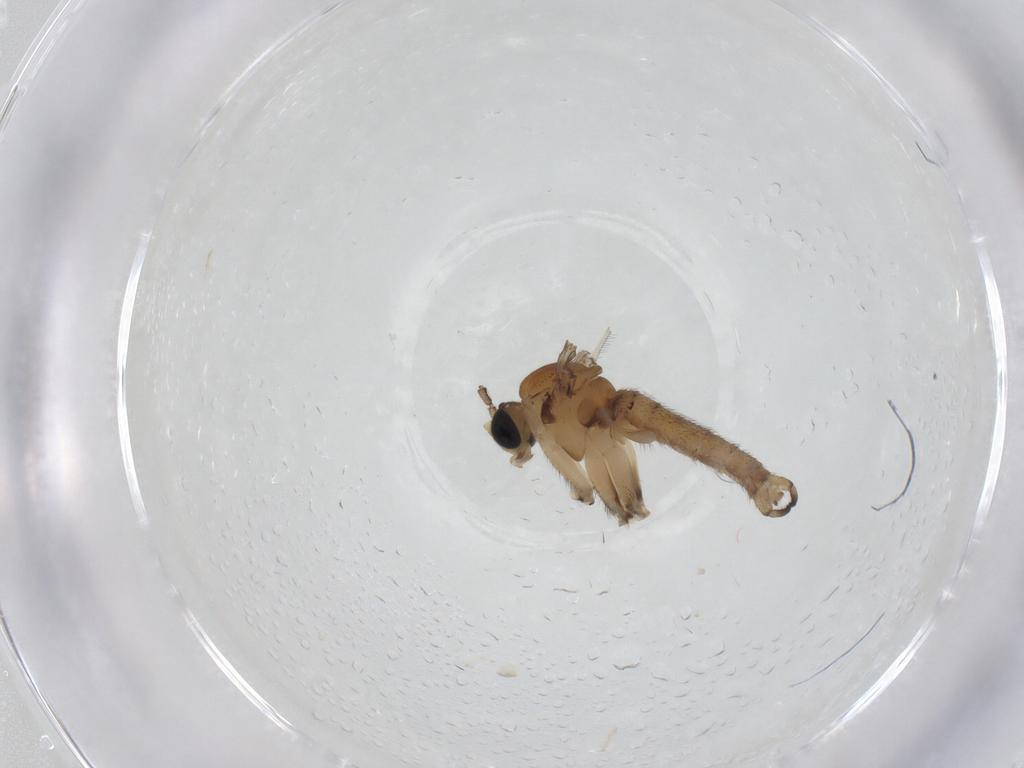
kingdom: Animalia
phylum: Arthropoda
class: Insecta
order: Diptera
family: Sciaridae
